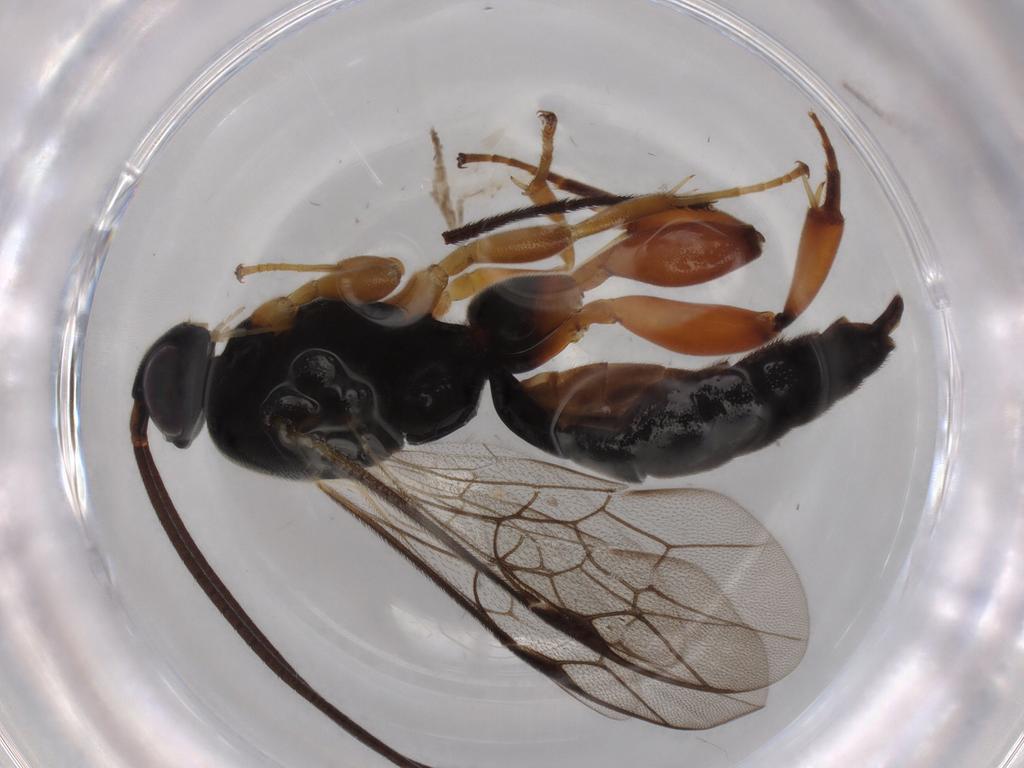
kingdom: Animalia
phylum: Arthropoda
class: Insecta
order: Hymenoptera
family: Ichneumonidae
